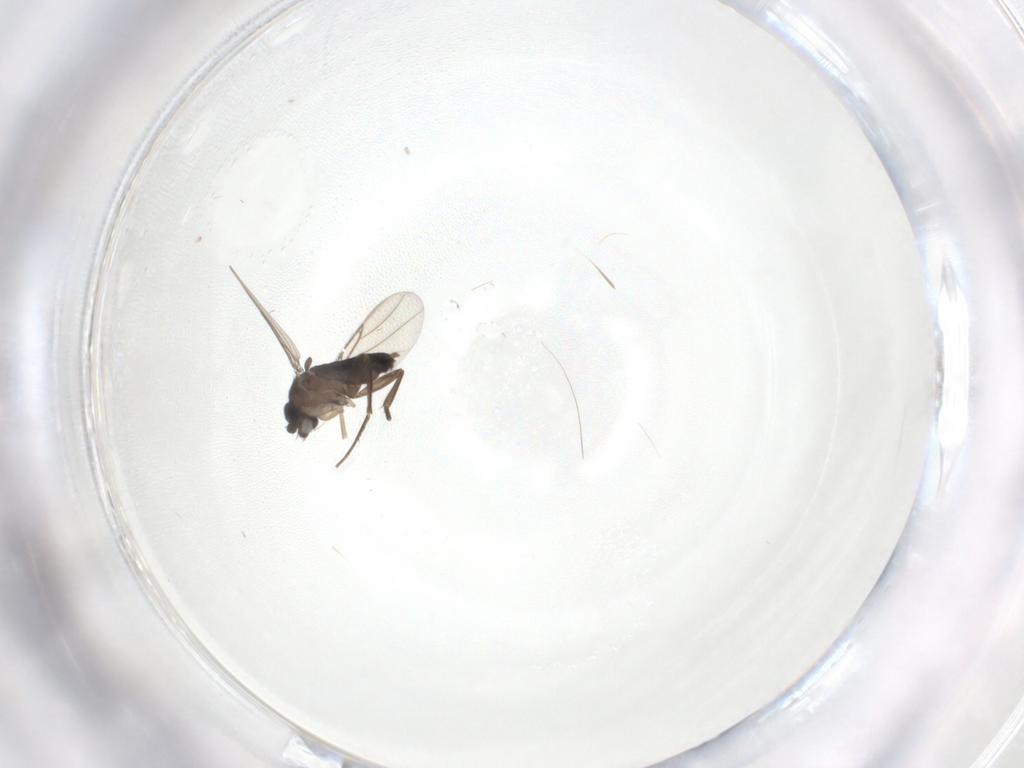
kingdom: Animalia
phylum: Arthropoda
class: Insecta
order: Diptera
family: Phoridae
